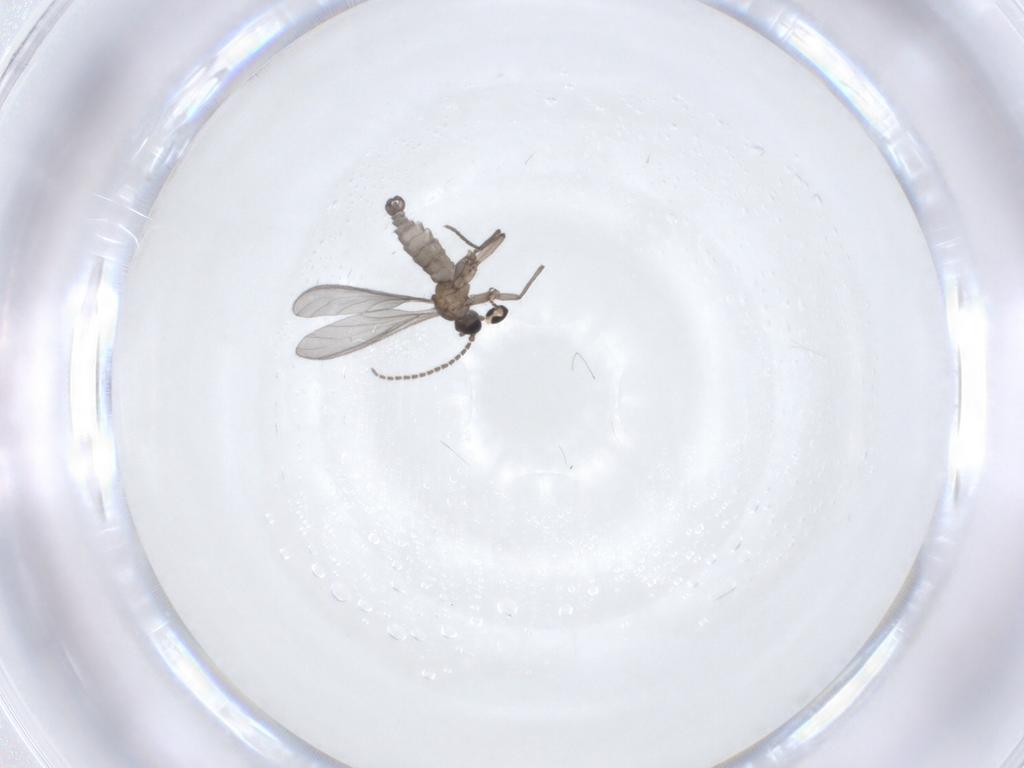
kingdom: Animalia
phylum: Arthropoda
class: Insecta
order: Diptera
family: Sciaridae
